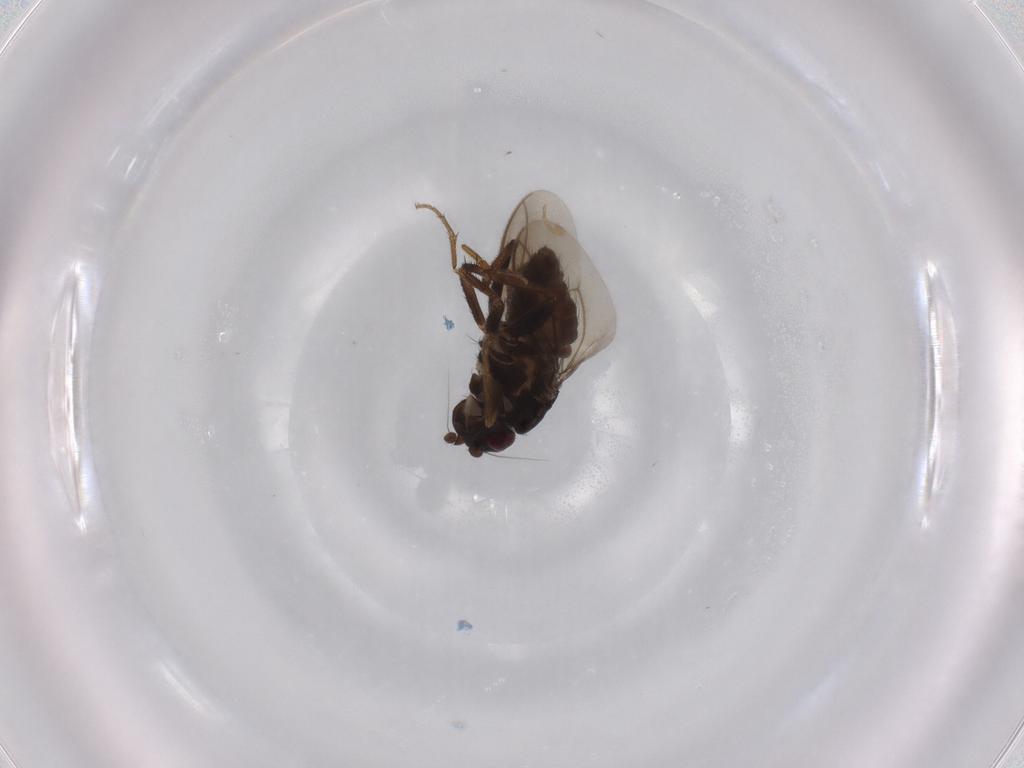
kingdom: Animalia
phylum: Arthropoda
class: Insecta
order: Diptera
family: Sphaeroceridae
